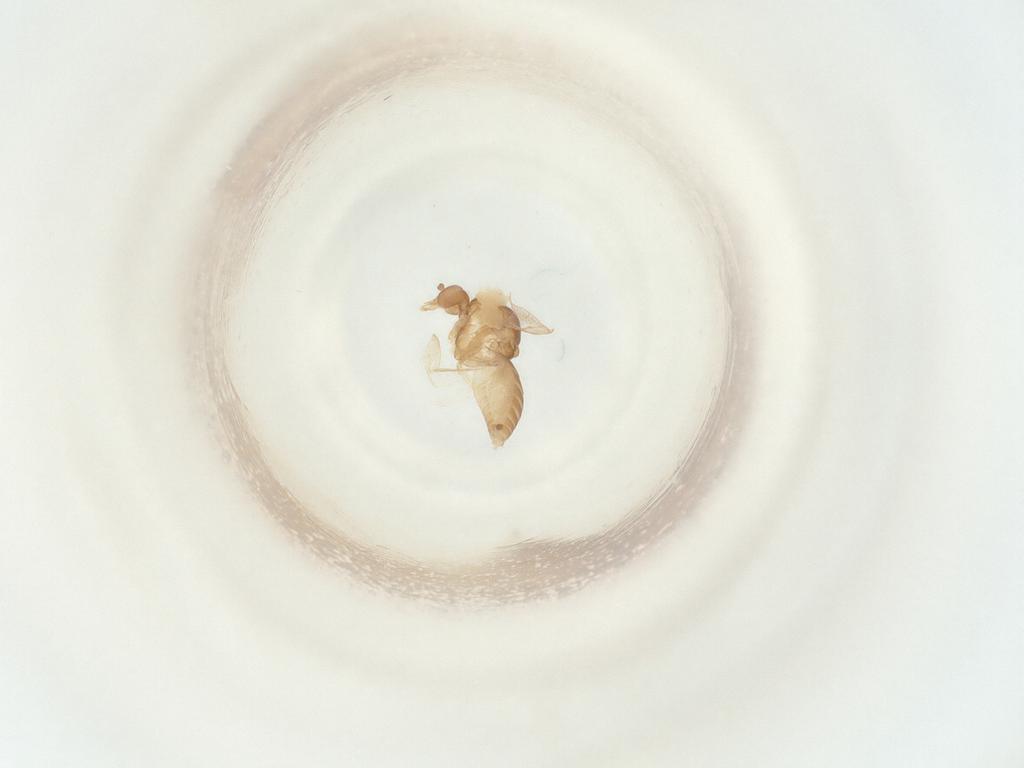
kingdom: Animalia
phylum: Arthropoda
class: Insecta
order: Diptera
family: Ceratopogonidae
